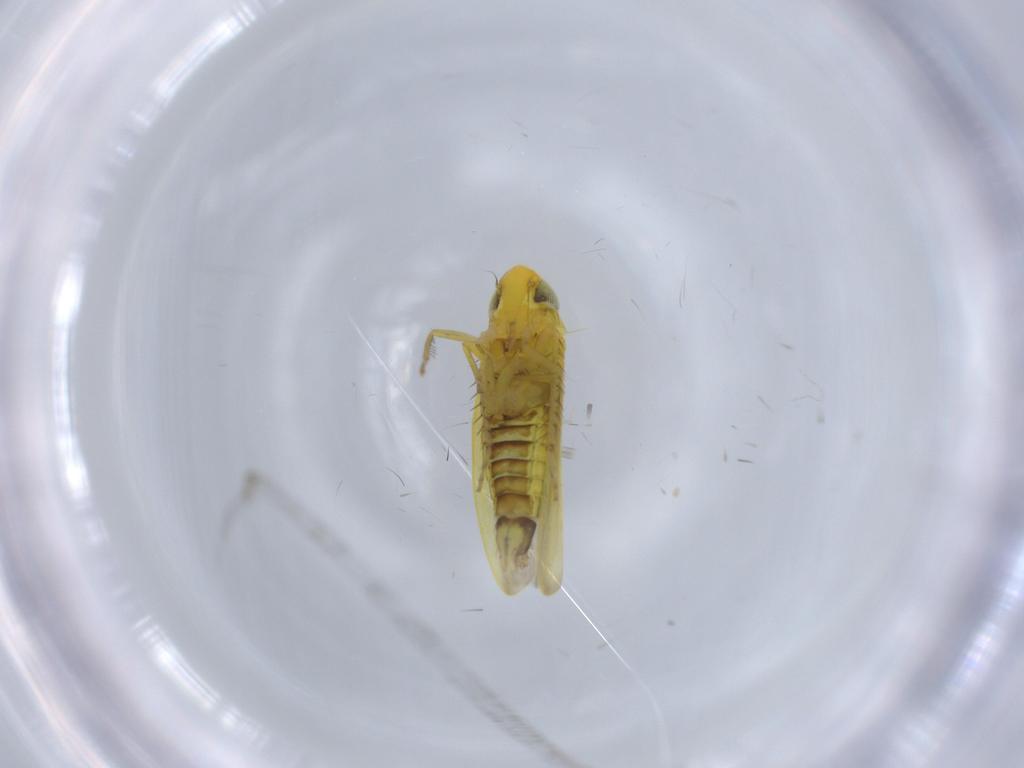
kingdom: Animalia
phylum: Arthropoda
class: Insecta
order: Hemiptera
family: Cicadellidae
